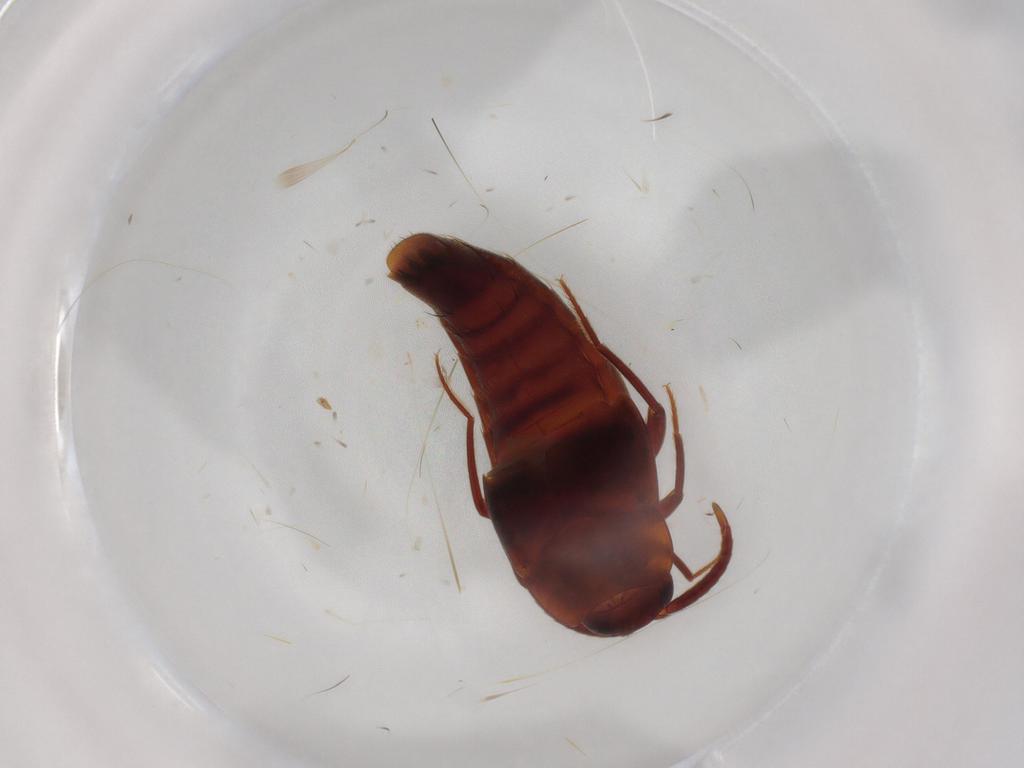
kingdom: Animalia
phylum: Arthropoda
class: Insecta
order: Coleoptera
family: Staphylinidae
